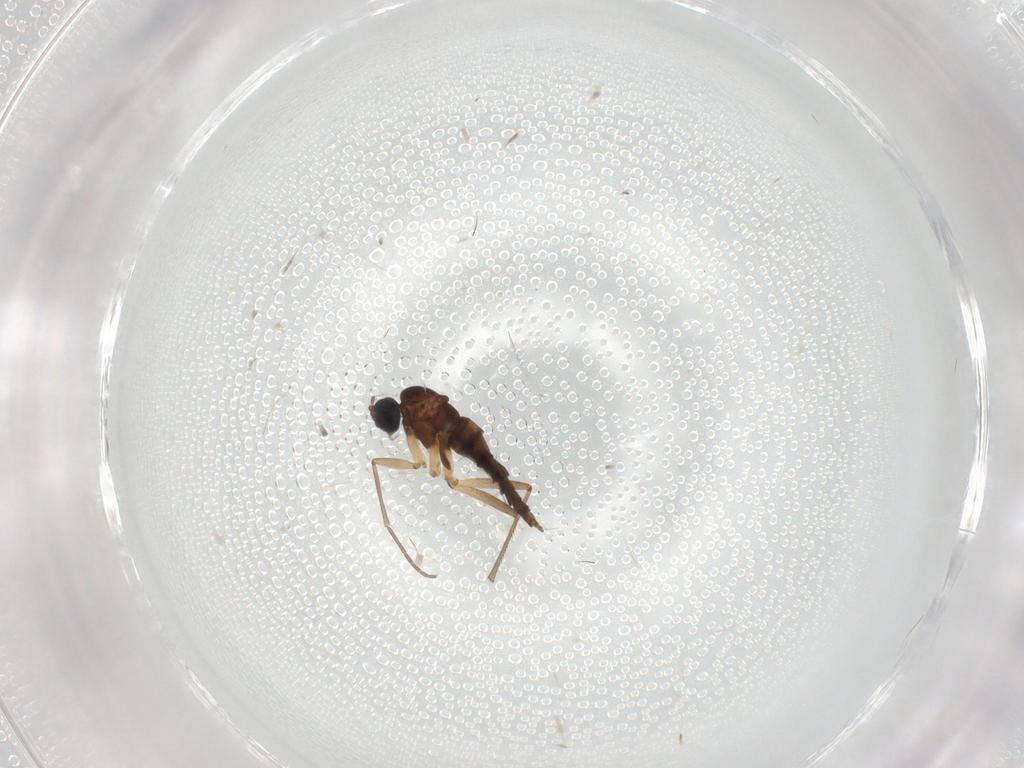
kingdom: Animalia
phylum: Arthropoda
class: Insecta
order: Diptera
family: Sciaridae
